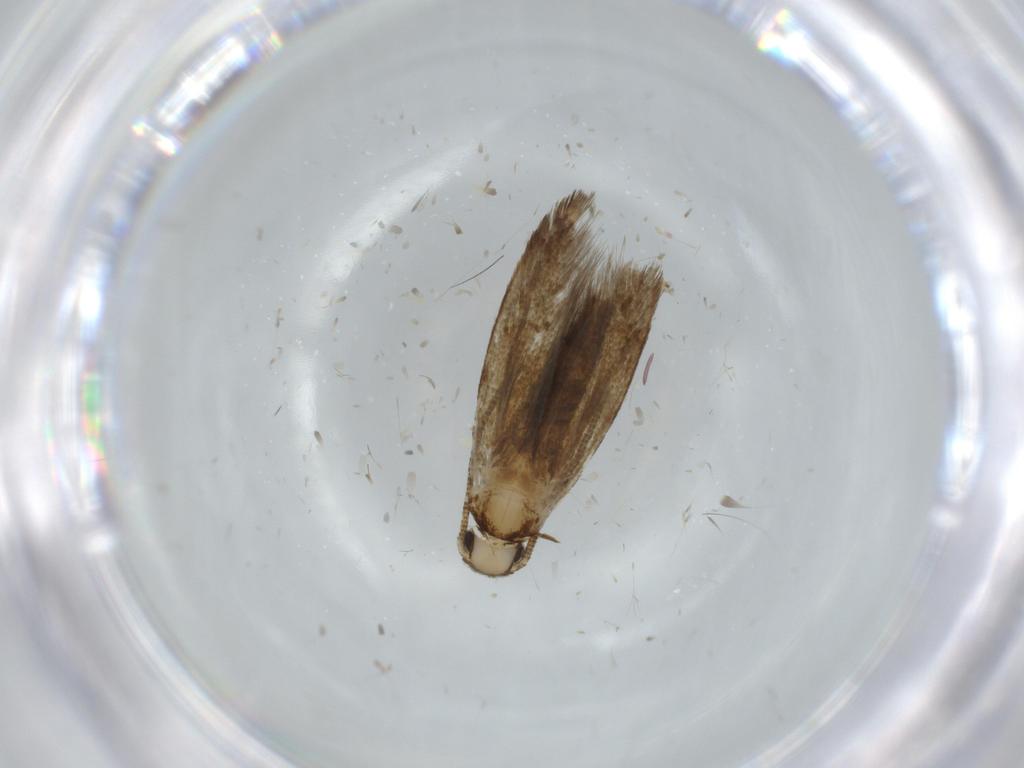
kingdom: Animalia
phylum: Arthropoda
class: Insecta
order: Lepidoptera
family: Tineidae
